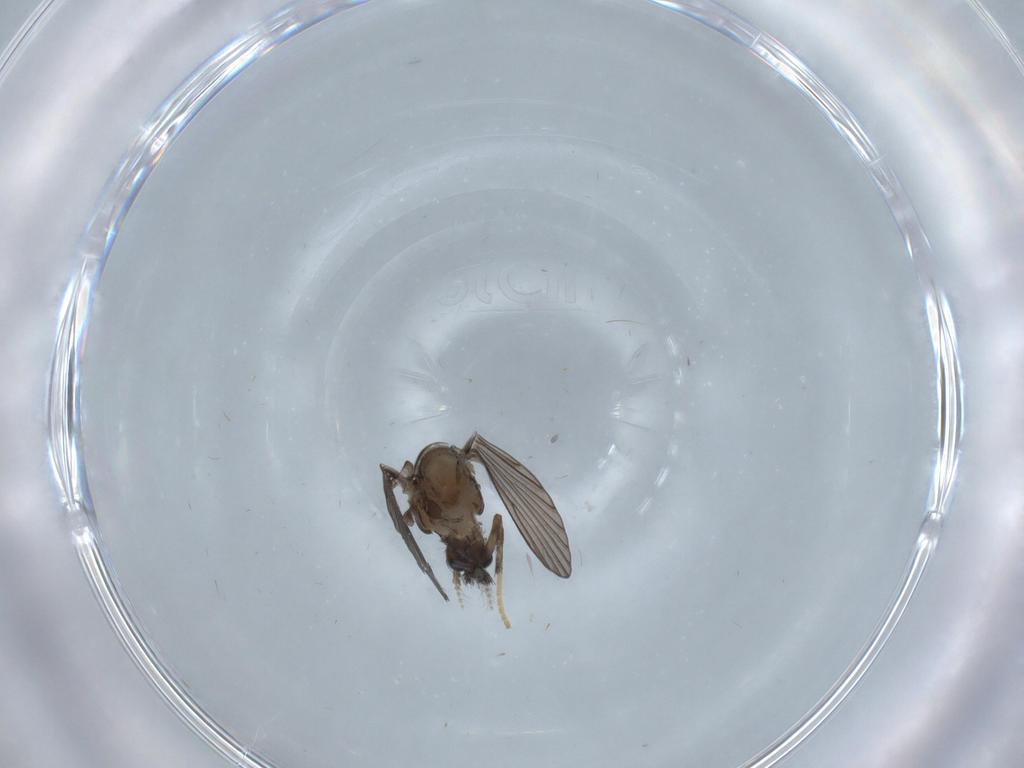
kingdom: Animalia
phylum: Arthropoda
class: Insecta
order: Diptera
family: Psychodidae
